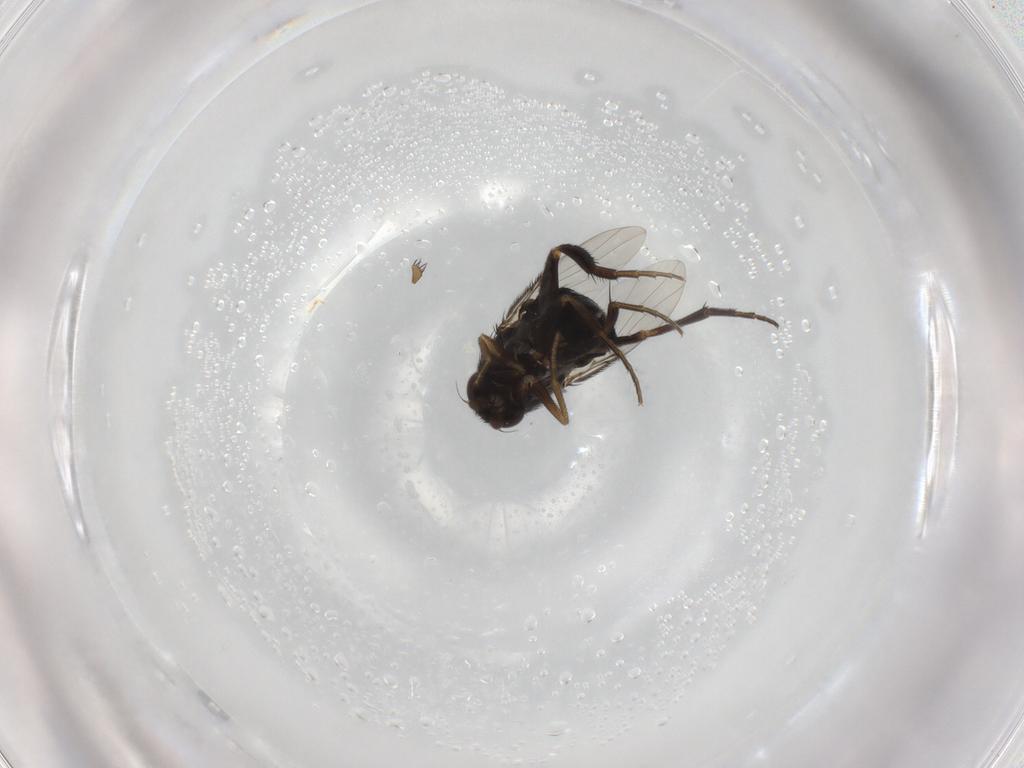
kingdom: Animalia
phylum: Arthropoda
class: Insecta
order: Diptera
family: Phoridae
